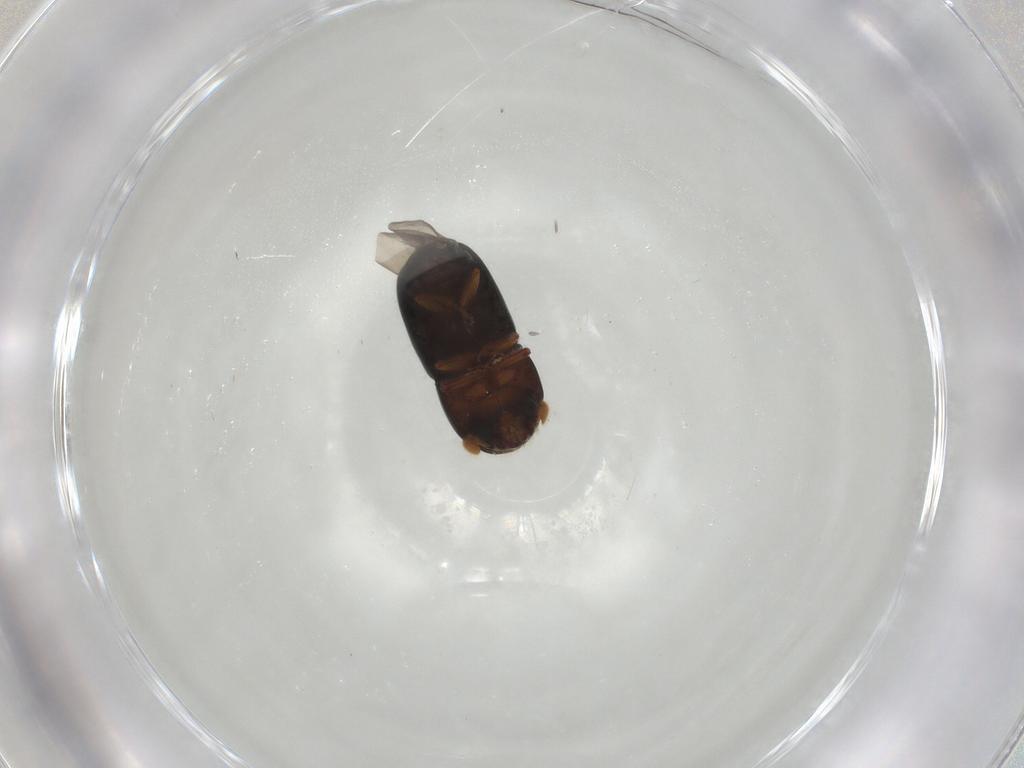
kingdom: Animalia
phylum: Arthropoda
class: Insecta
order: Coleoptera
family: Curculionidae
